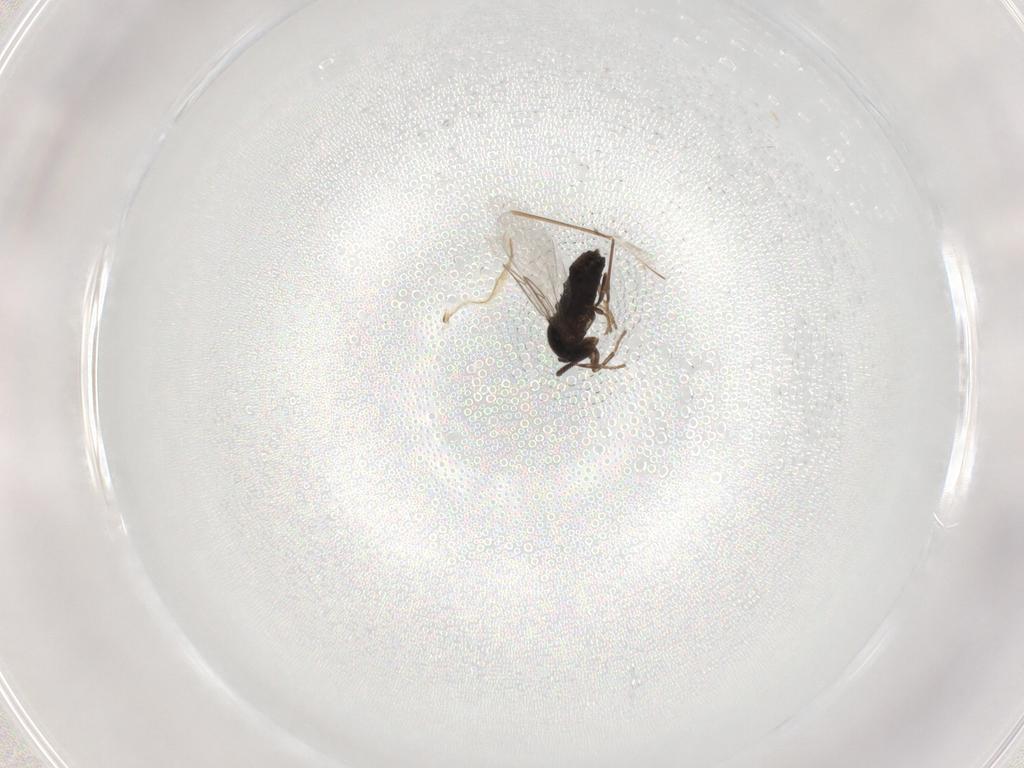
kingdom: Animalia
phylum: Arthropoda
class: Insecta
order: Diptera
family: Scatopsidae
